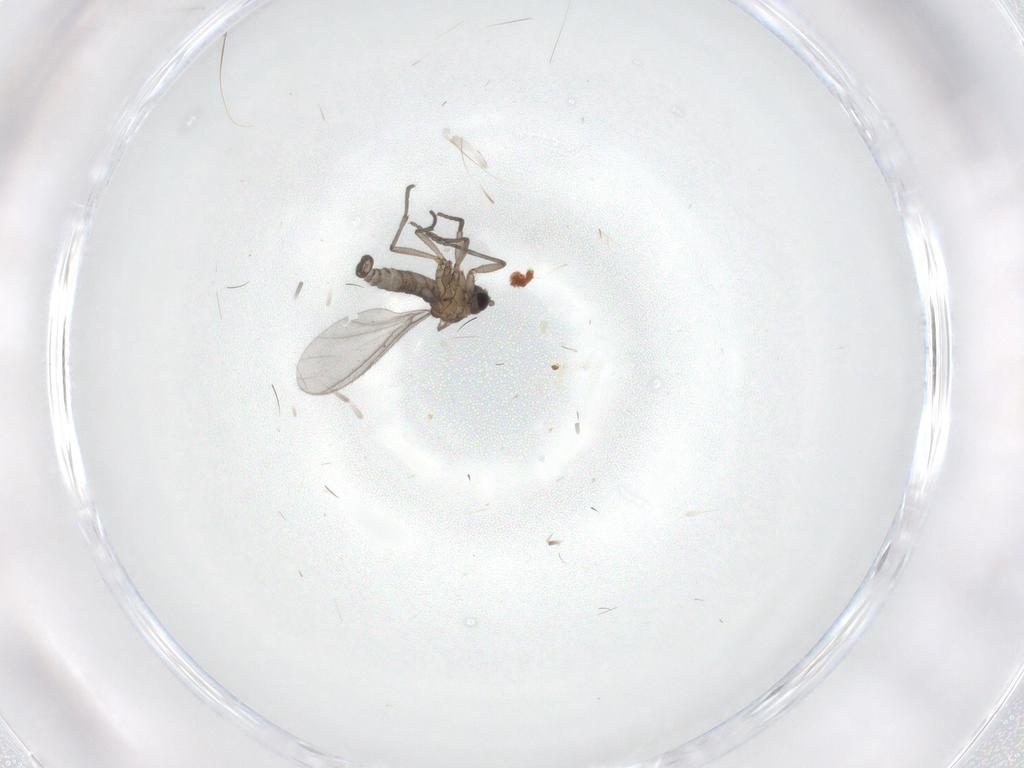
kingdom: Animalia
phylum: Arthropoda
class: Insecta
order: Diptera
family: Sciaridae
